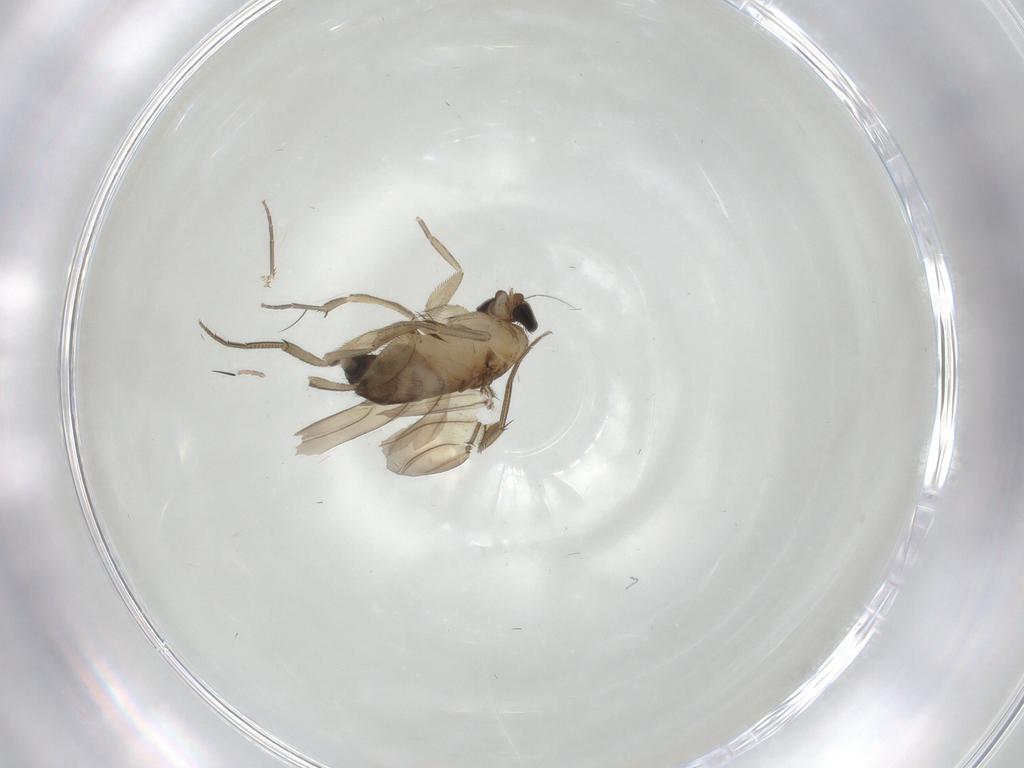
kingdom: Animalia
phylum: Arthropoda
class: Insecta
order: Diptera
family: Phoridae
